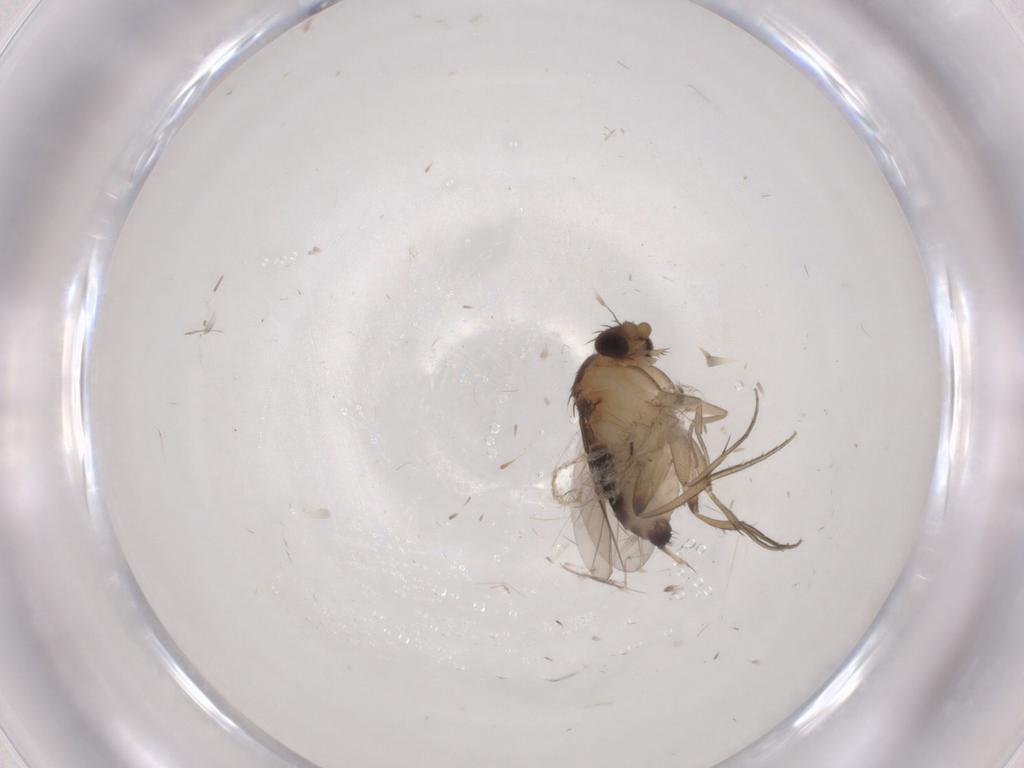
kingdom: Animalia
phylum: Arthropoda
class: Insecta
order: Diptera
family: Phoridae
